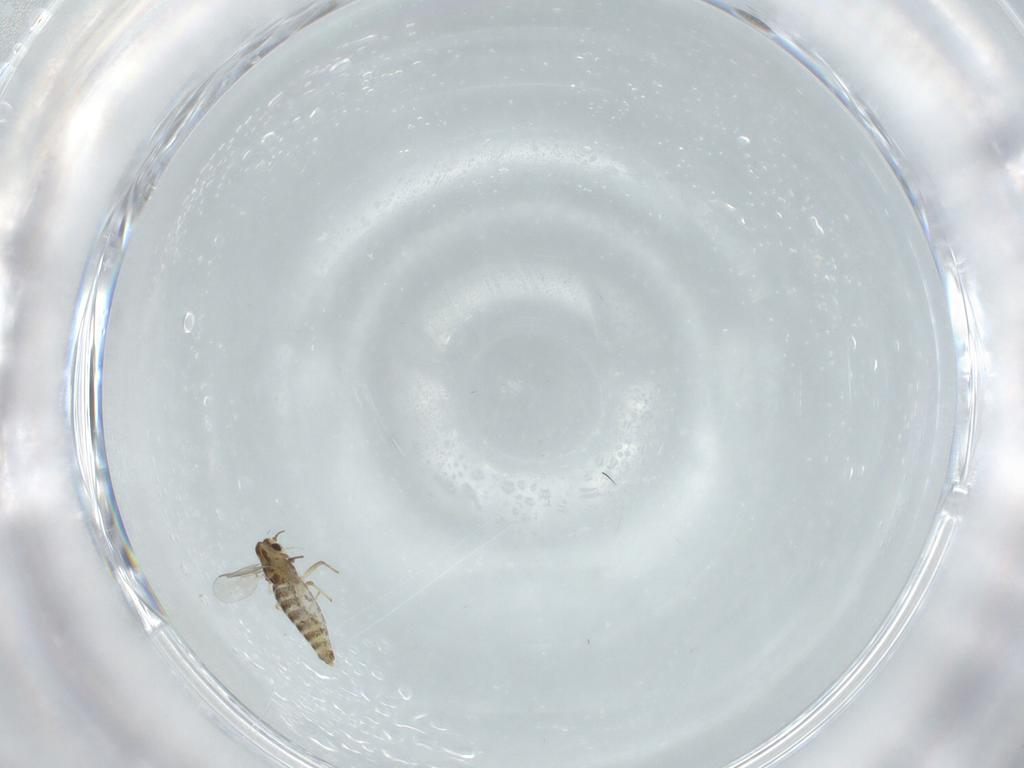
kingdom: Animalia
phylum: Arthropoda
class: Insecta
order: Diptera
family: Chironomidae
